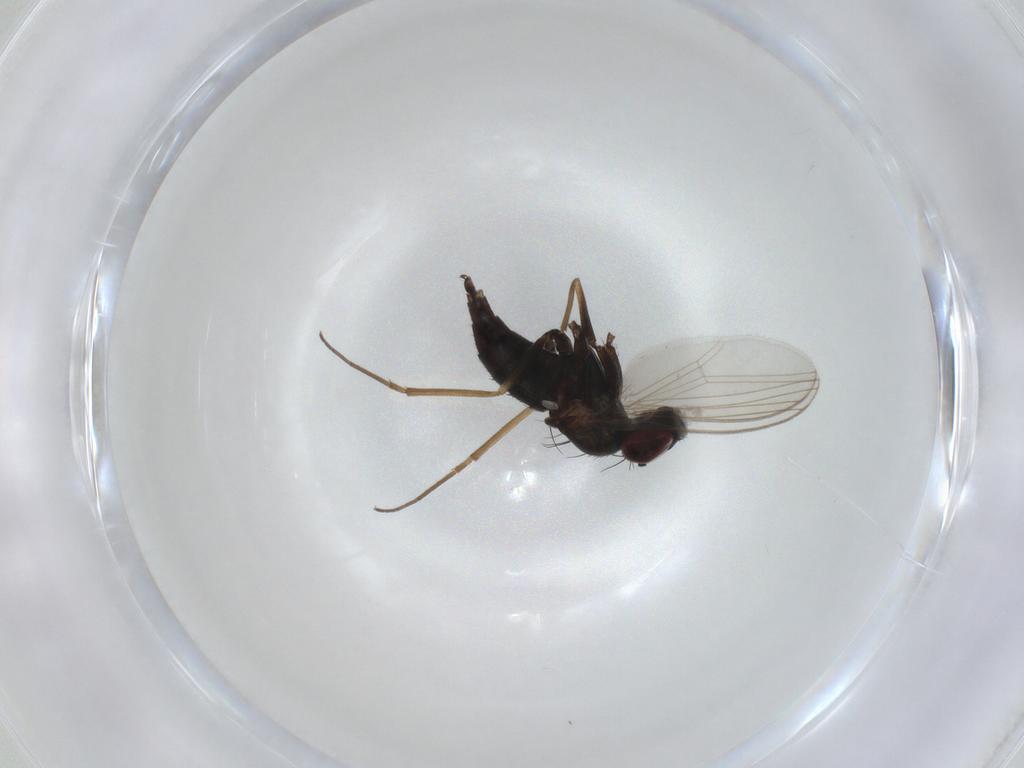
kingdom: Animalia
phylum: Arthropoda
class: Insecta
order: Diptera
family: Dolichopodidae
